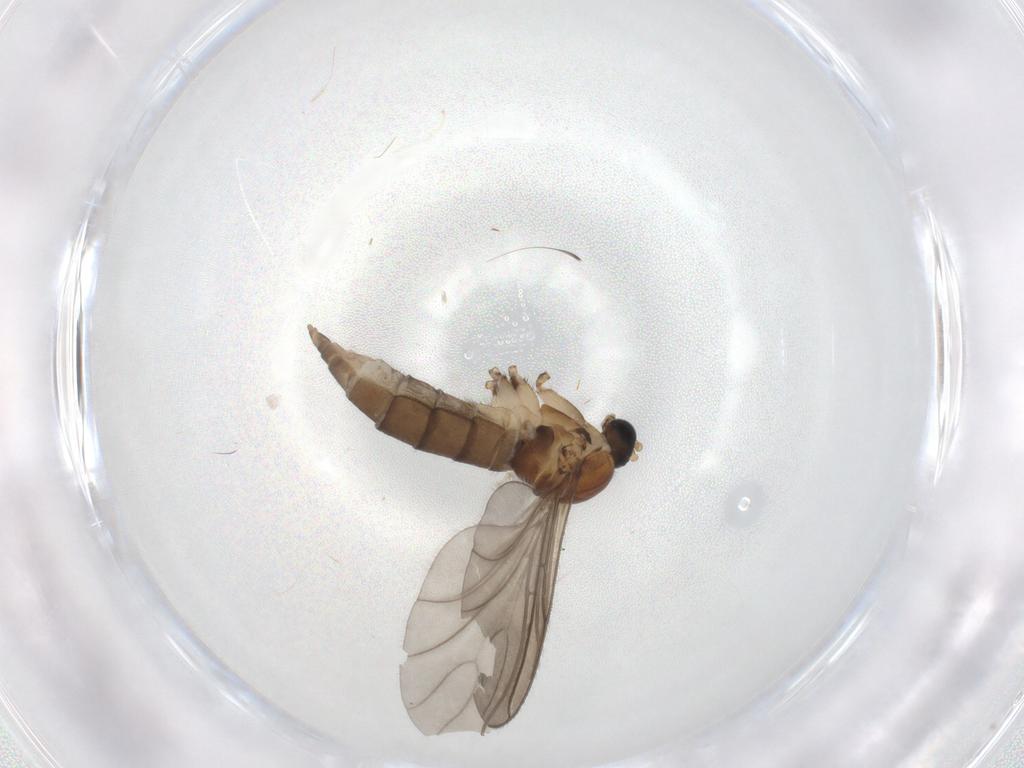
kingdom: Animalia
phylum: Arthropoda
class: Insecta
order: Diptera
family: Sciaridae
